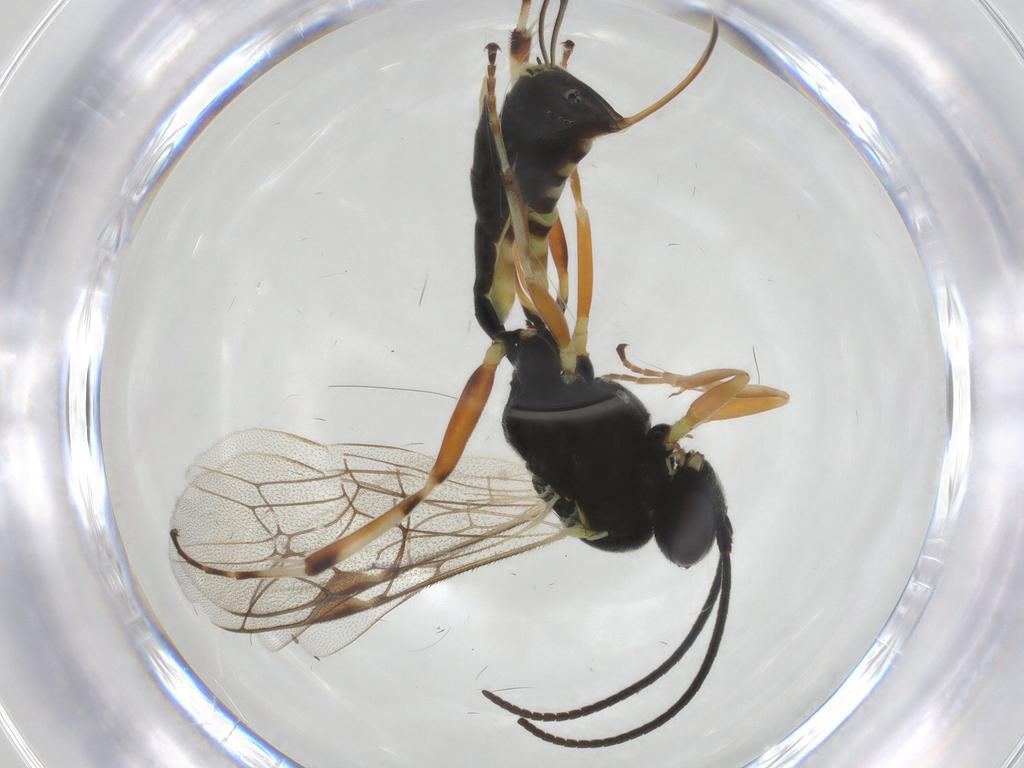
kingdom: Animalia
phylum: Arthropoda
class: Insecta
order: Hymenoptera
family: Ichneumonidae
